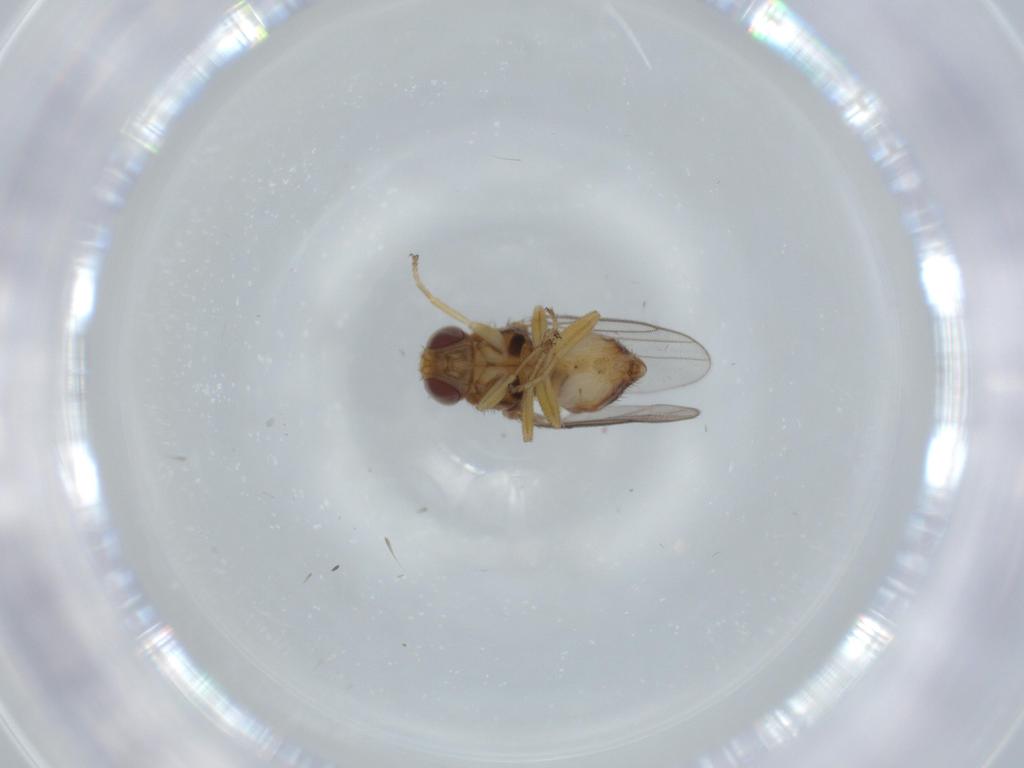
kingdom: Animalia
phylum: Arthropoda
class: Insecta
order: Diptera
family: Chloropidae
